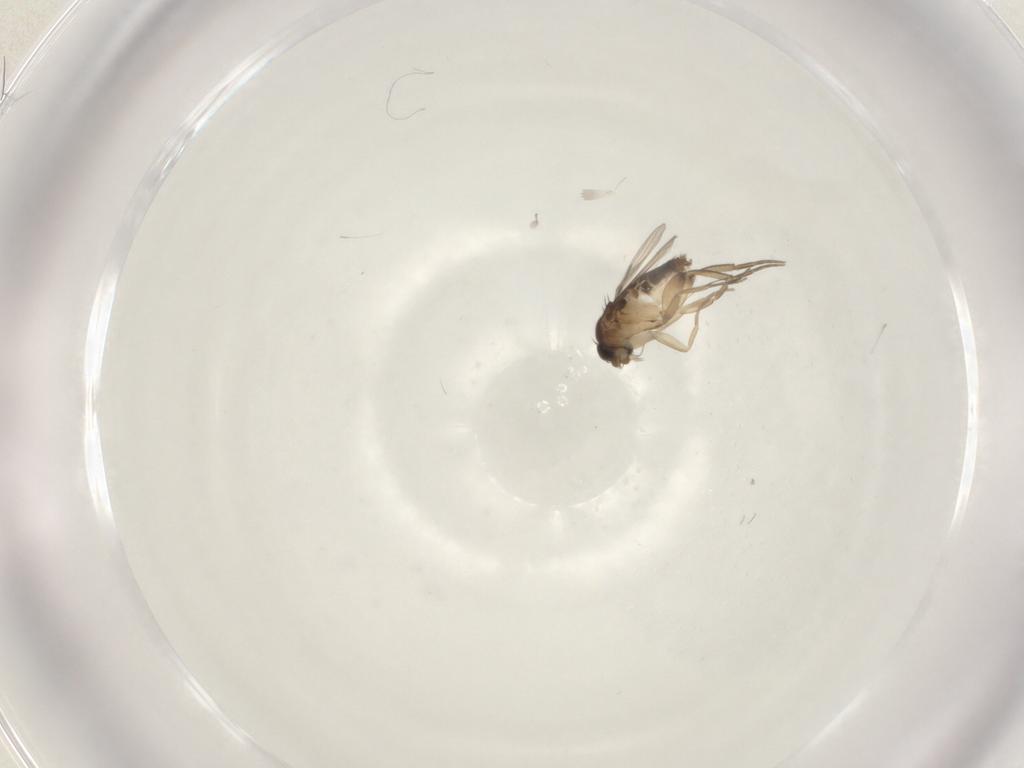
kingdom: Animalia
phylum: Arthropoda
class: Insecta
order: Diptera
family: Phoridae
